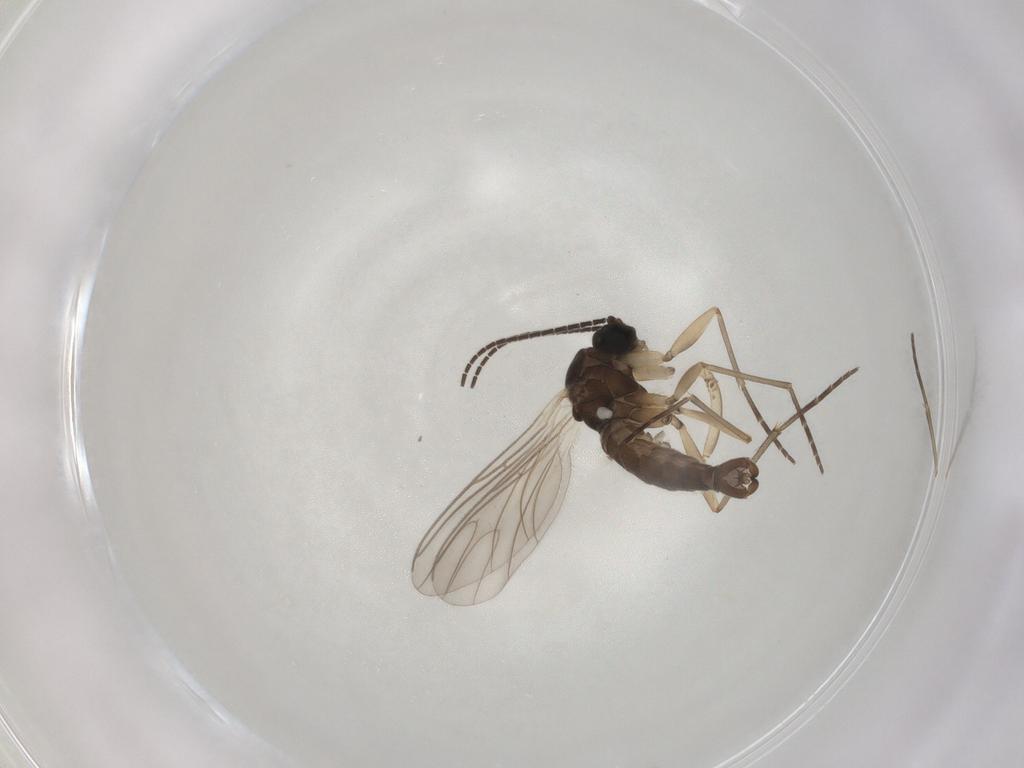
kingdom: Animalia
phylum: Arthropoda
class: Insecta
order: Diptera
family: Sciaridae
